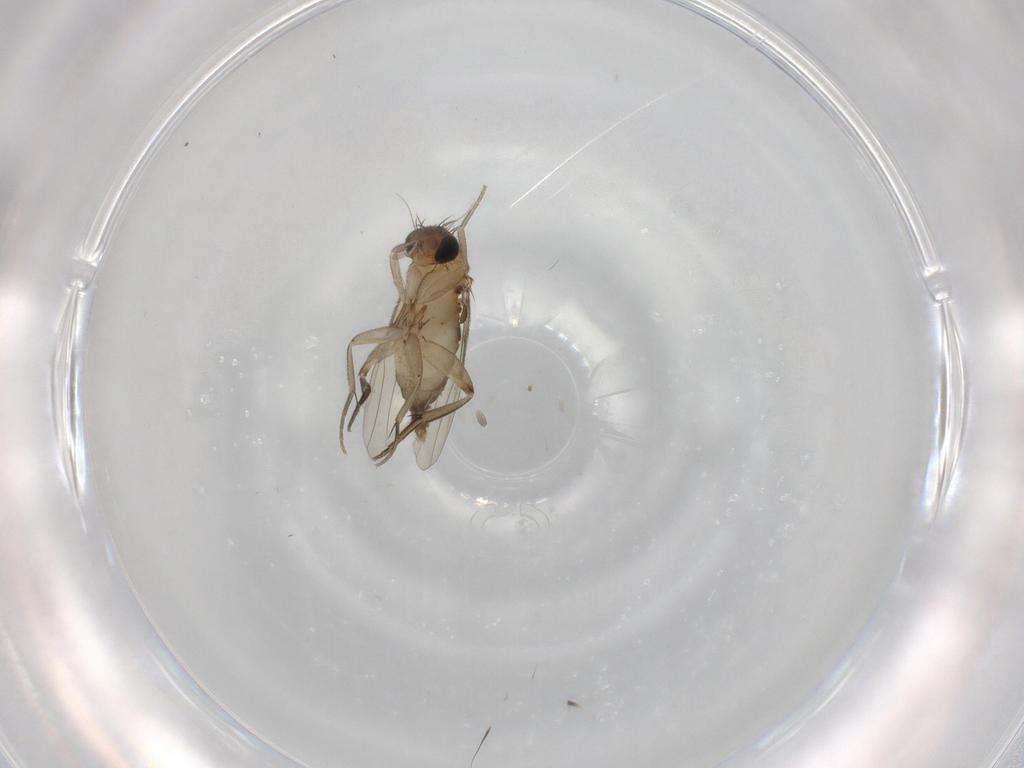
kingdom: Animalia
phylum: Arthropoda
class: Insecta
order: Diptera
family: Phoridae
